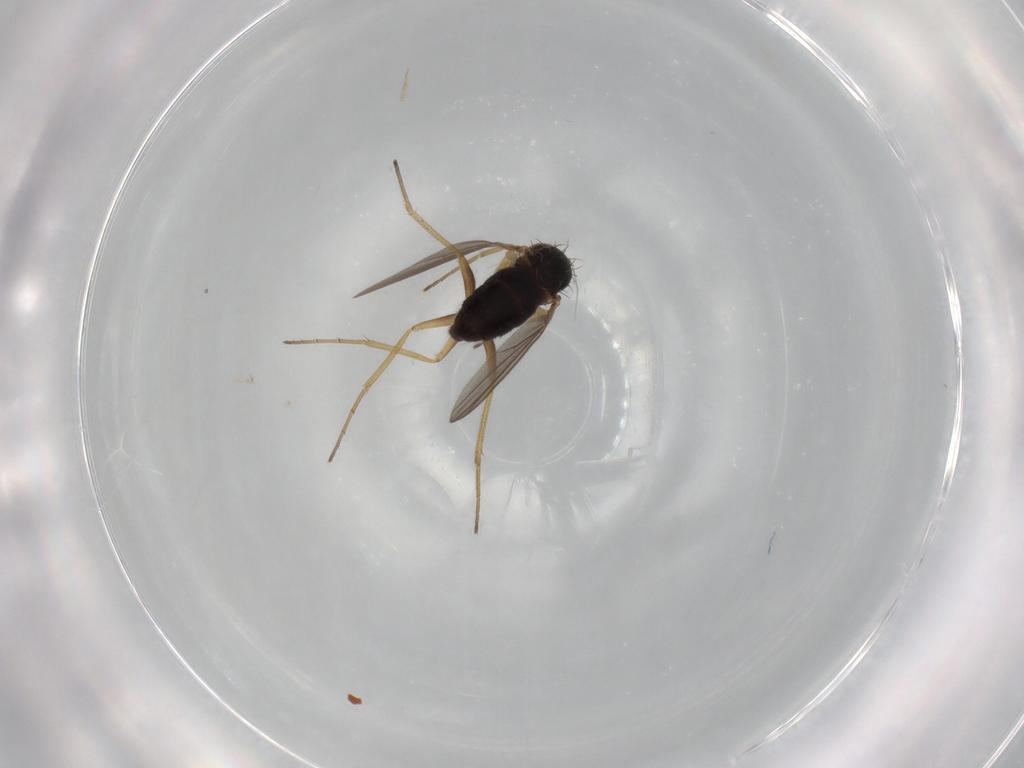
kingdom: Animalia
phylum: Arthropoda
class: Insecta
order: Diptera
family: Dolichopodidae
